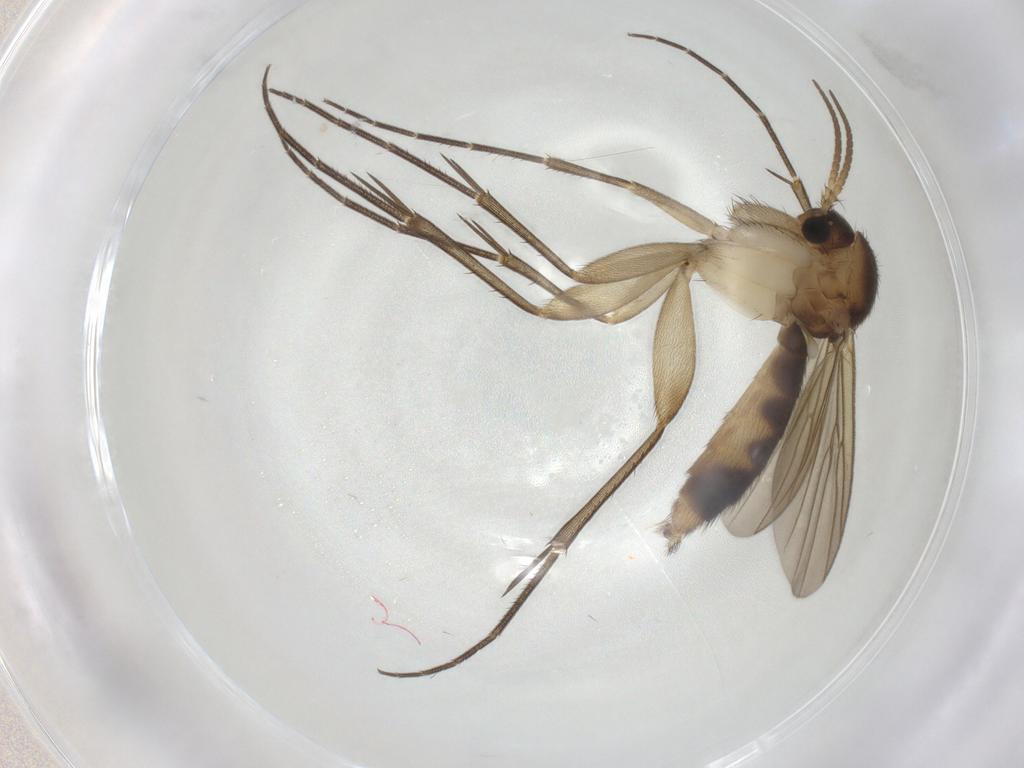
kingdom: Animalia
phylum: Arthropoda
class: Insecta
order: Diptera
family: Mycetophilidae
